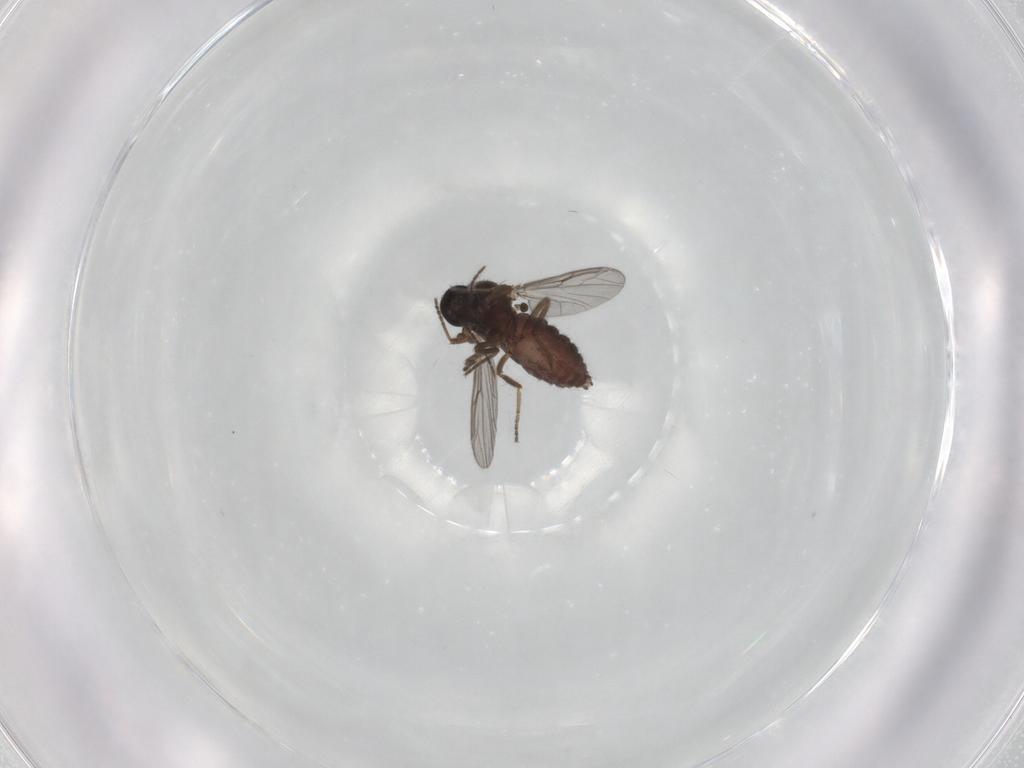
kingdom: Animalia
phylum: Arthropoda
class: Insecta
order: Diptera
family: Ceratopogonidae
